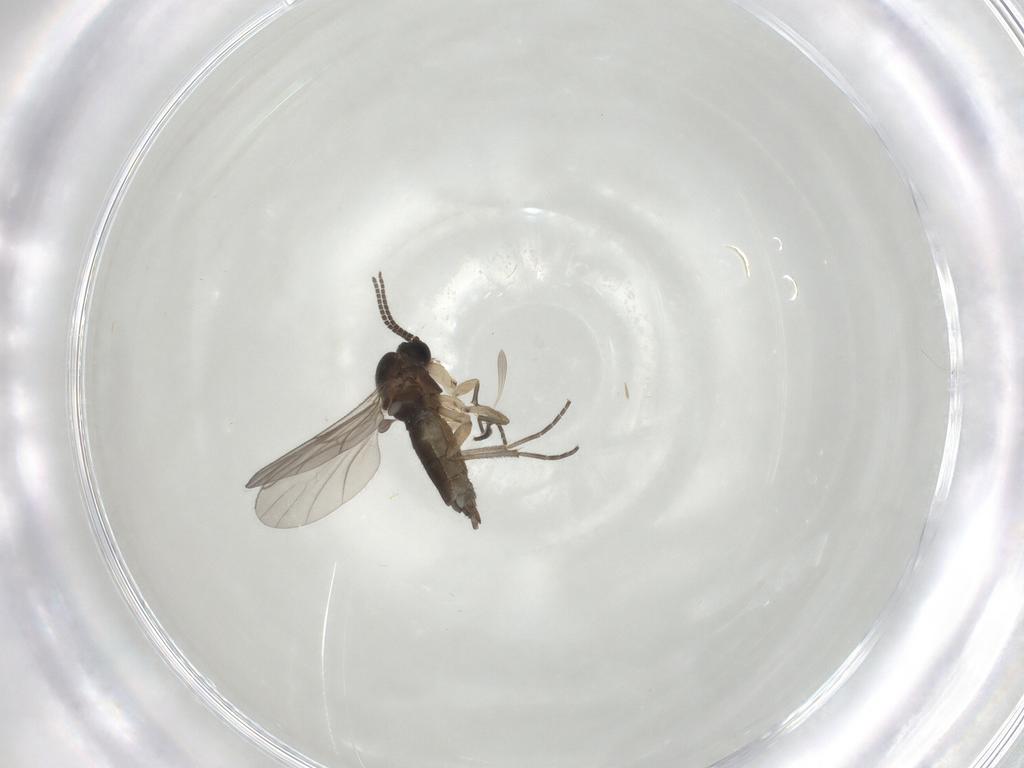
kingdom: Animalia
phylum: Arthropoda
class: Insecta
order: Diptera
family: Sciaridae
